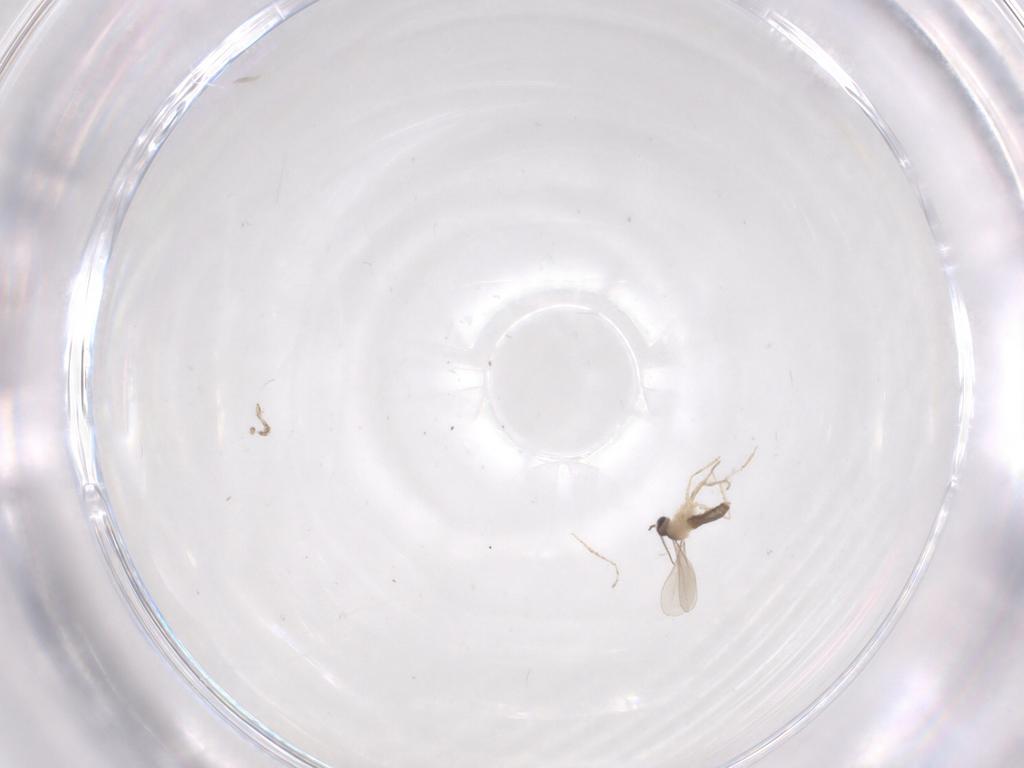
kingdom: Animalia
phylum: Arthropoda
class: Insecta
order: Diptera
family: Cecidomyiidae
